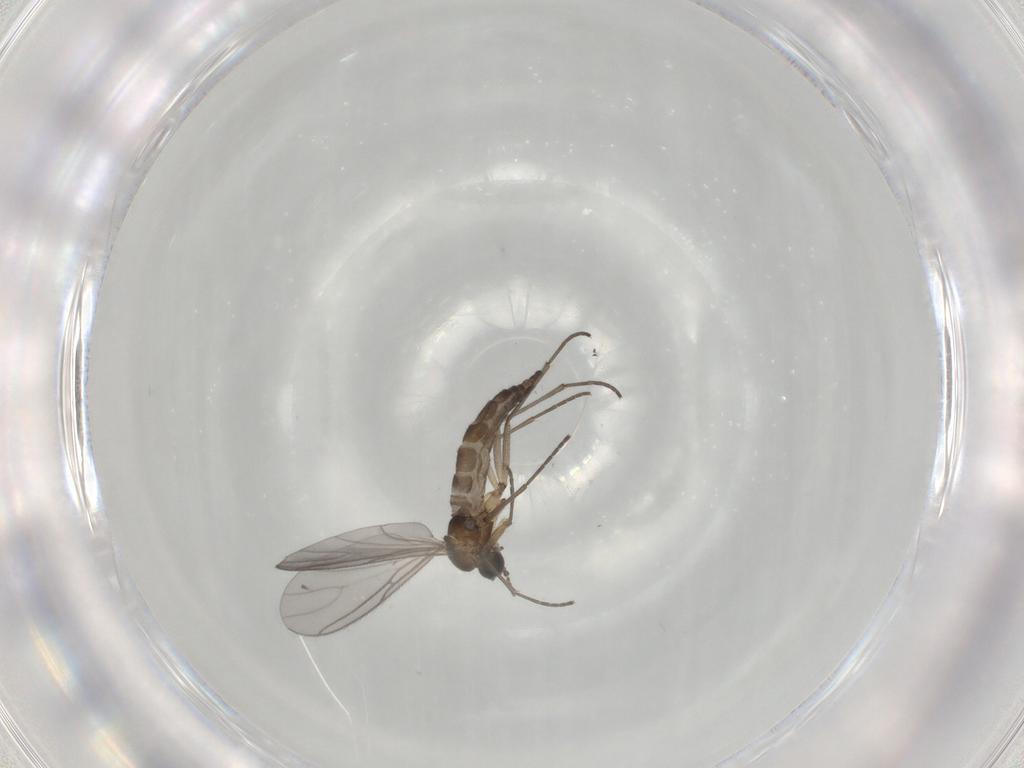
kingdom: Animalia
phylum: Arthropoda
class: Insecta
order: Diptera
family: Sciaridae
